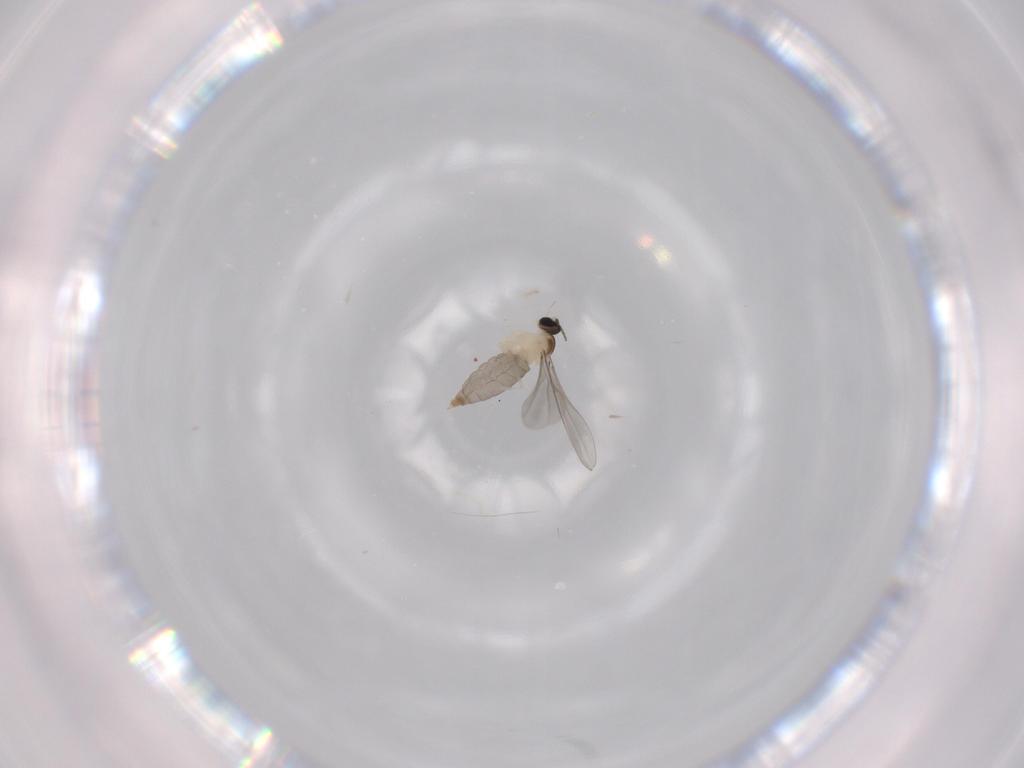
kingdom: Animalia
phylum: Arthropoda
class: Insecta
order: Diptera
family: Cecidomyiidae
